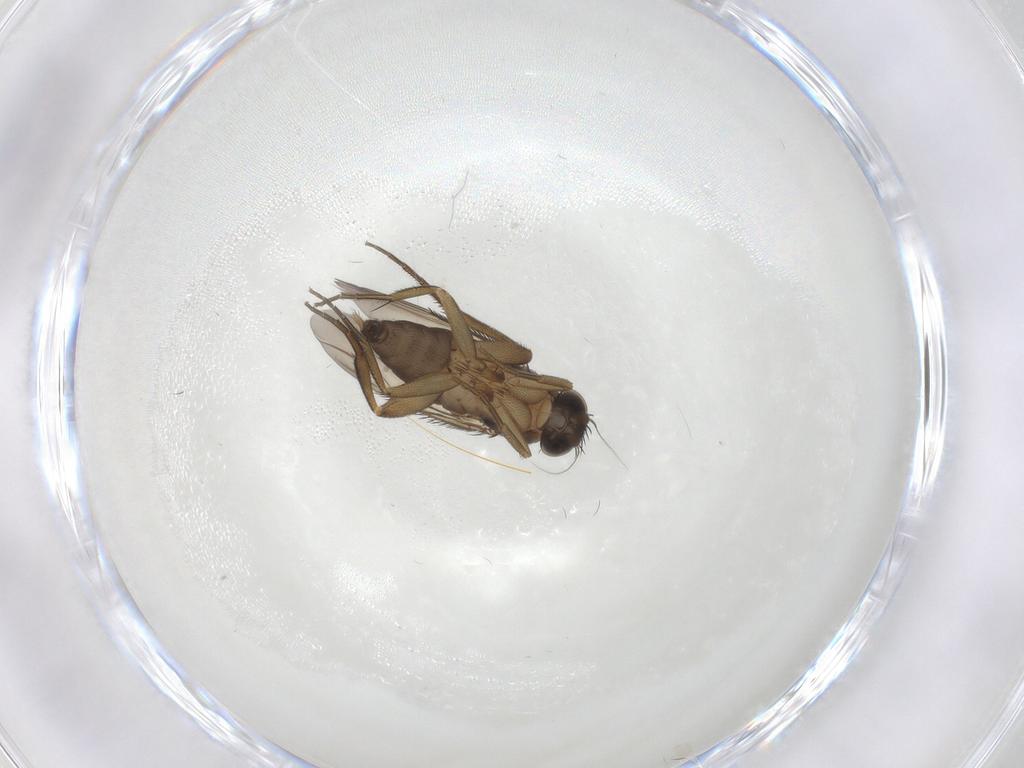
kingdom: Animalia
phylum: Arthropoda
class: Insecta
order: Diptera
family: Phoridae
